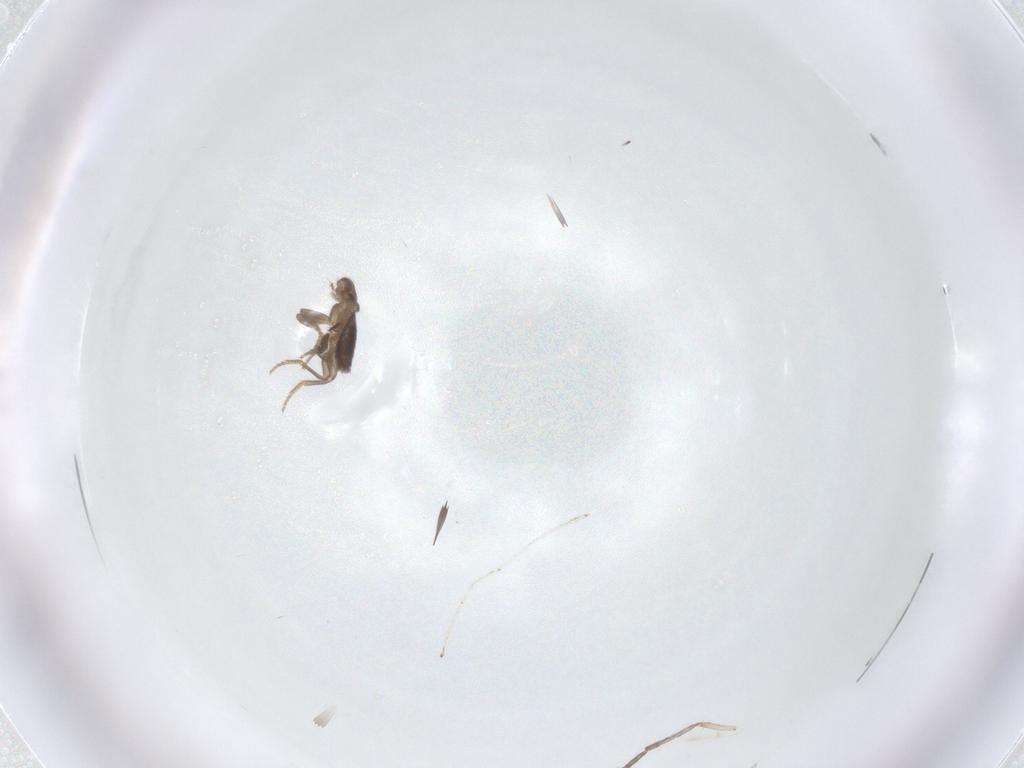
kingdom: Animalia
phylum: Arthropoda
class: Insecta
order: Diptera
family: Cecidomyiidae
